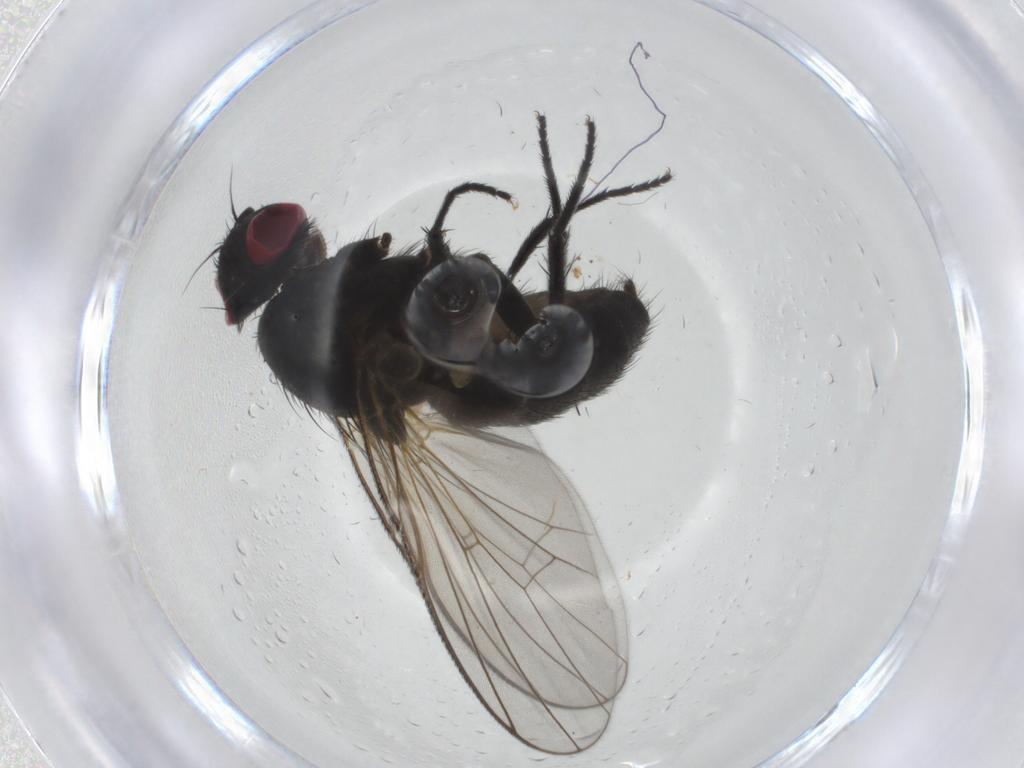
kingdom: Animalia
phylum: Arthropoda
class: Insecta
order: Diptera
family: Fannia
